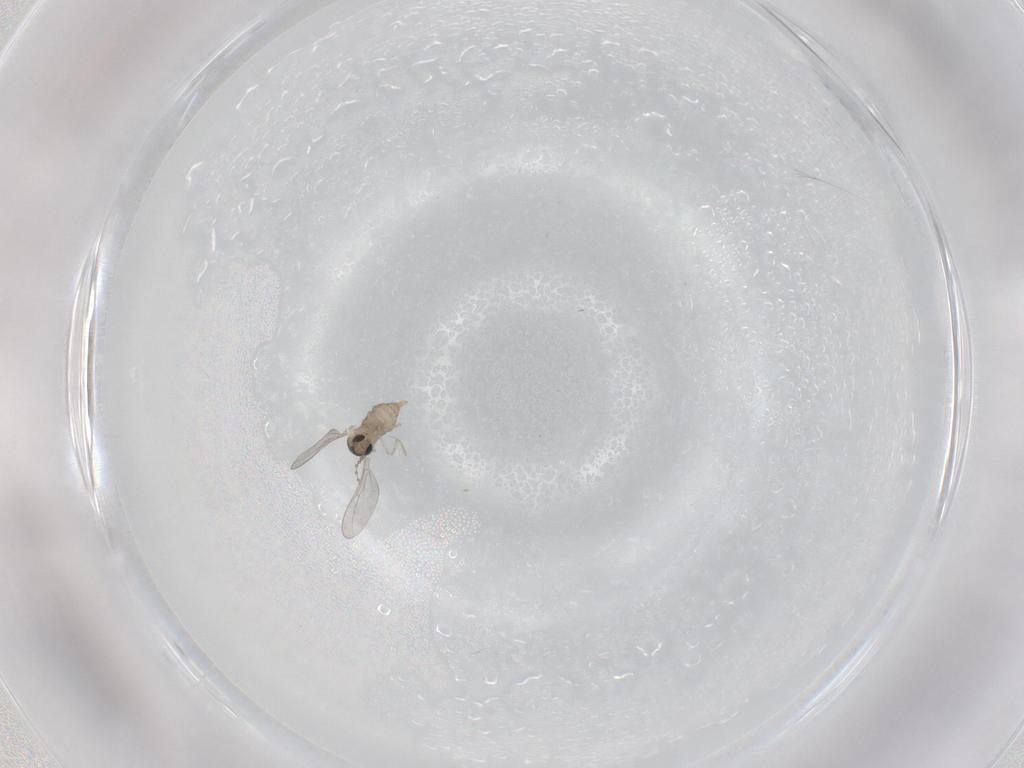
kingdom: Animalia
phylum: Arthropoda
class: Insecta
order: Diptera
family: Cecidomyiidae
